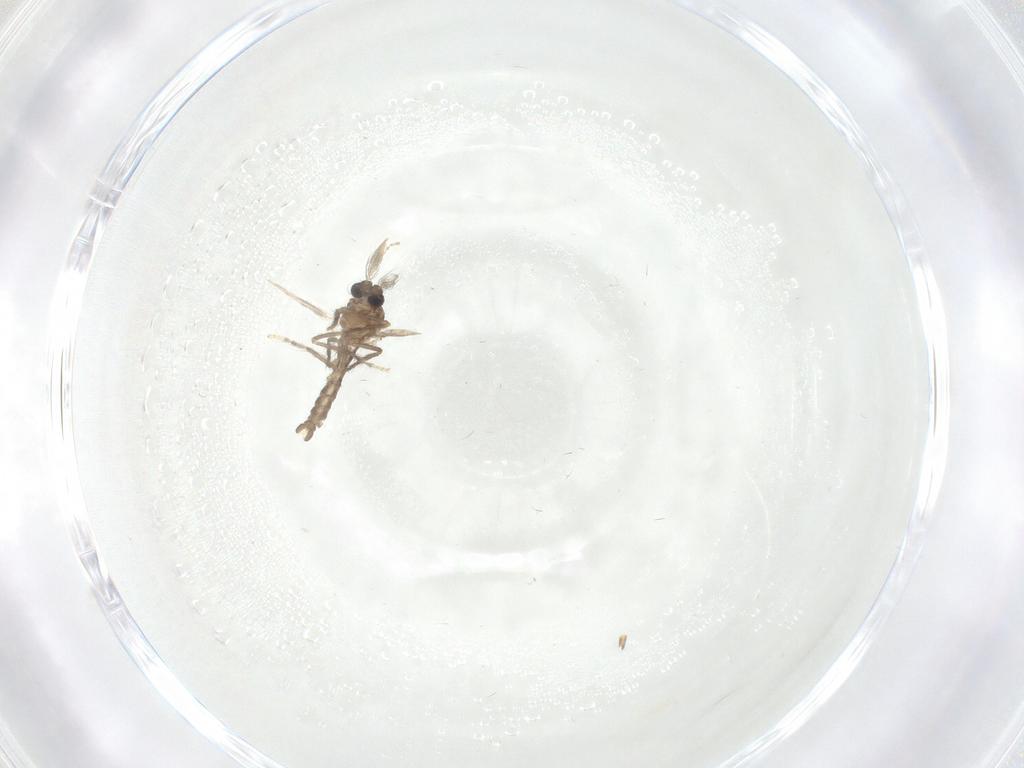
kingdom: Animalia
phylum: Arthropoda
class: Insecta
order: Diptera
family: Ceratopogonidae
